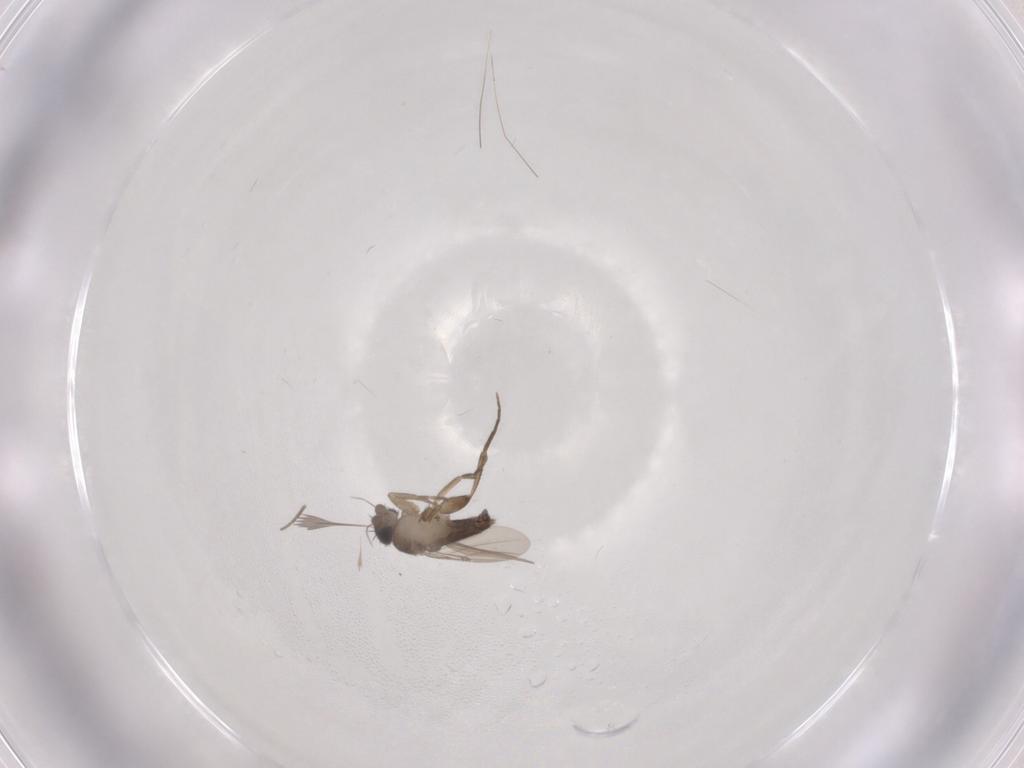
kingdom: Animalia
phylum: Arthropoda
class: Insecta
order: Diptera
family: Phoridae
